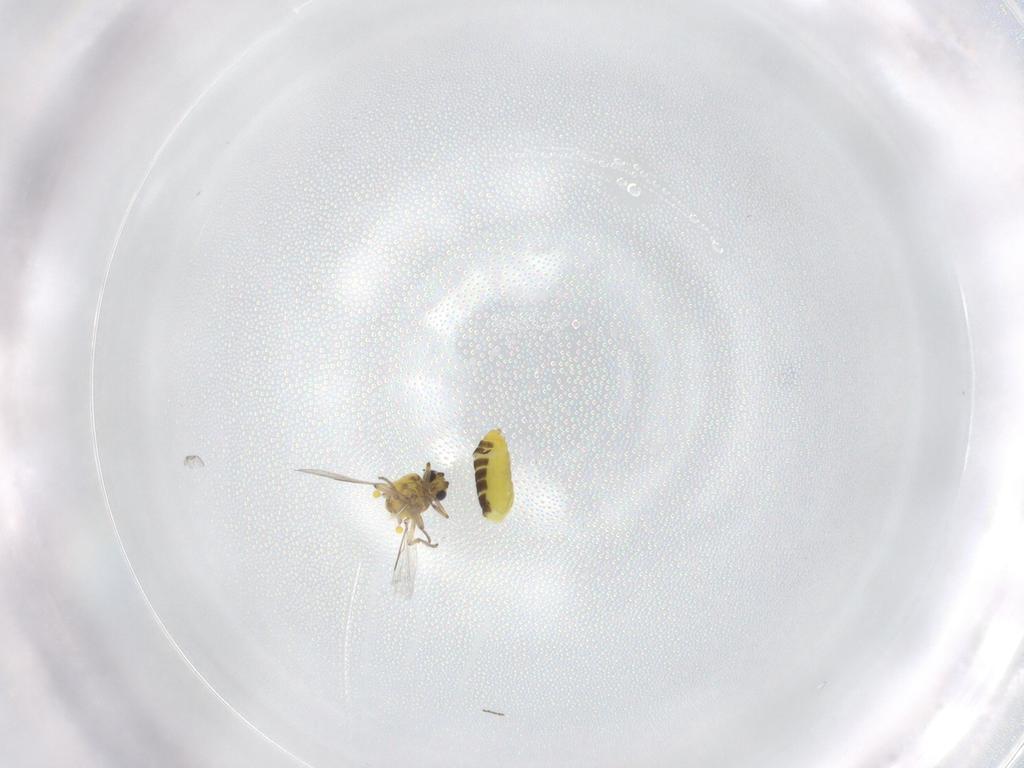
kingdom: Animalia
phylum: Arthropoda
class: Insecta
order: Diptera
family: Ceratopogonidae
